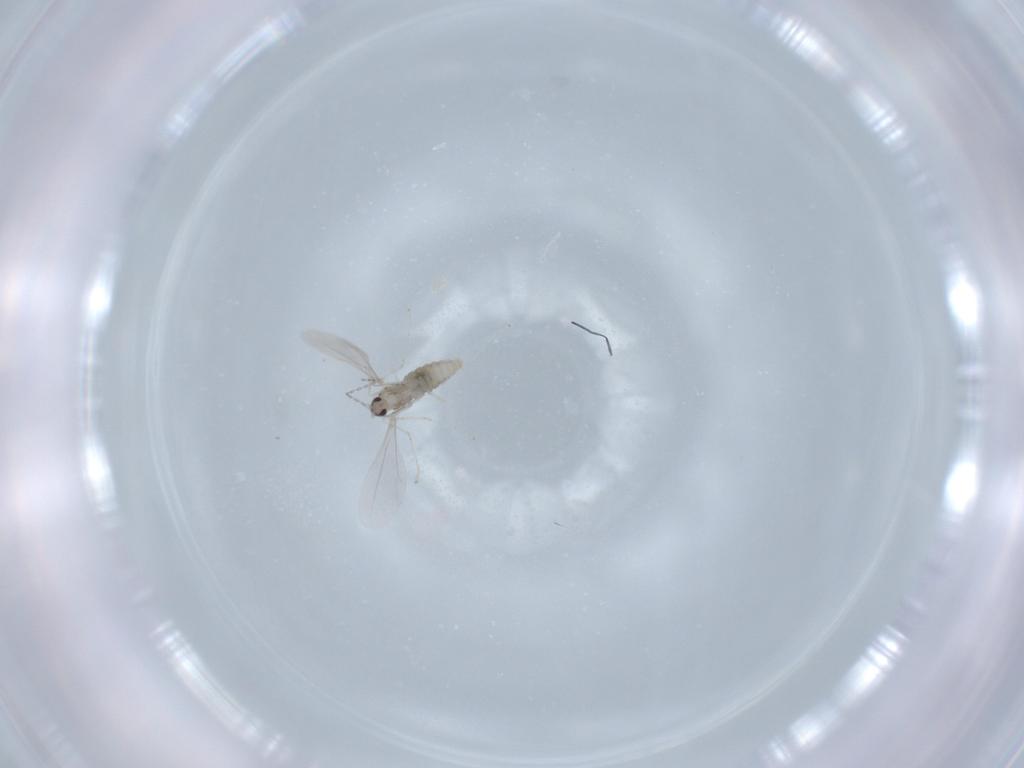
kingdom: Animalia
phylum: Arthropoda
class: Insecta
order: Diptera
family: Cecidomyiidae
